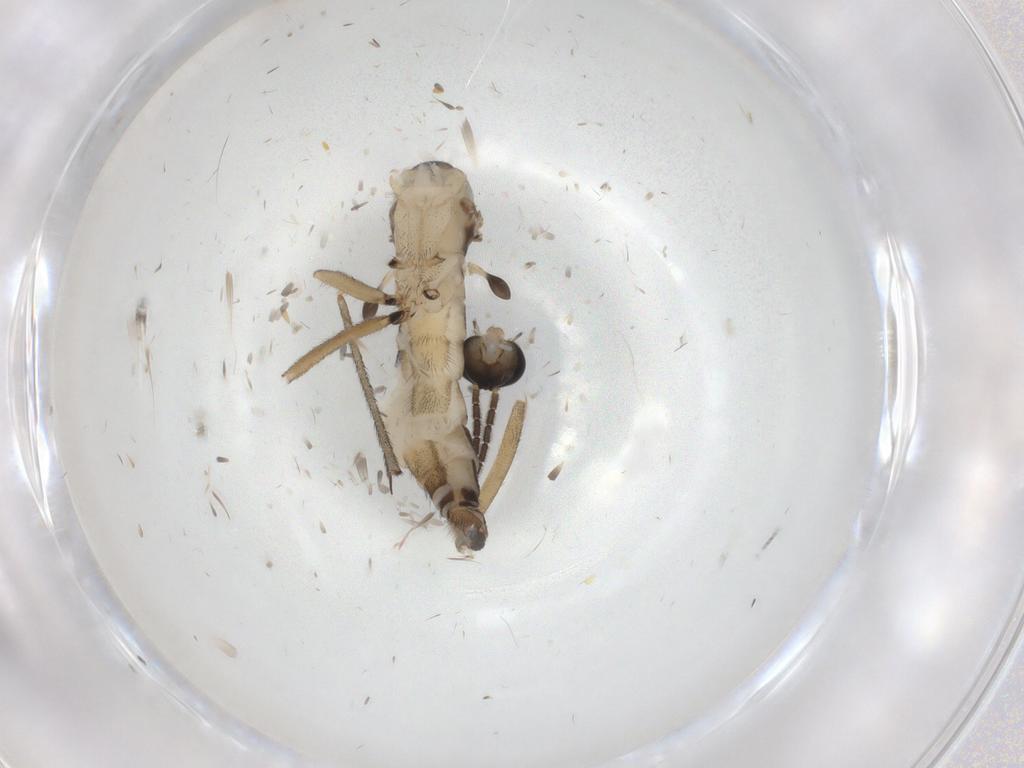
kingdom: Animalia
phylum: Arthropoda
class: Insecta
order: Diptera
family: Sciaridae
